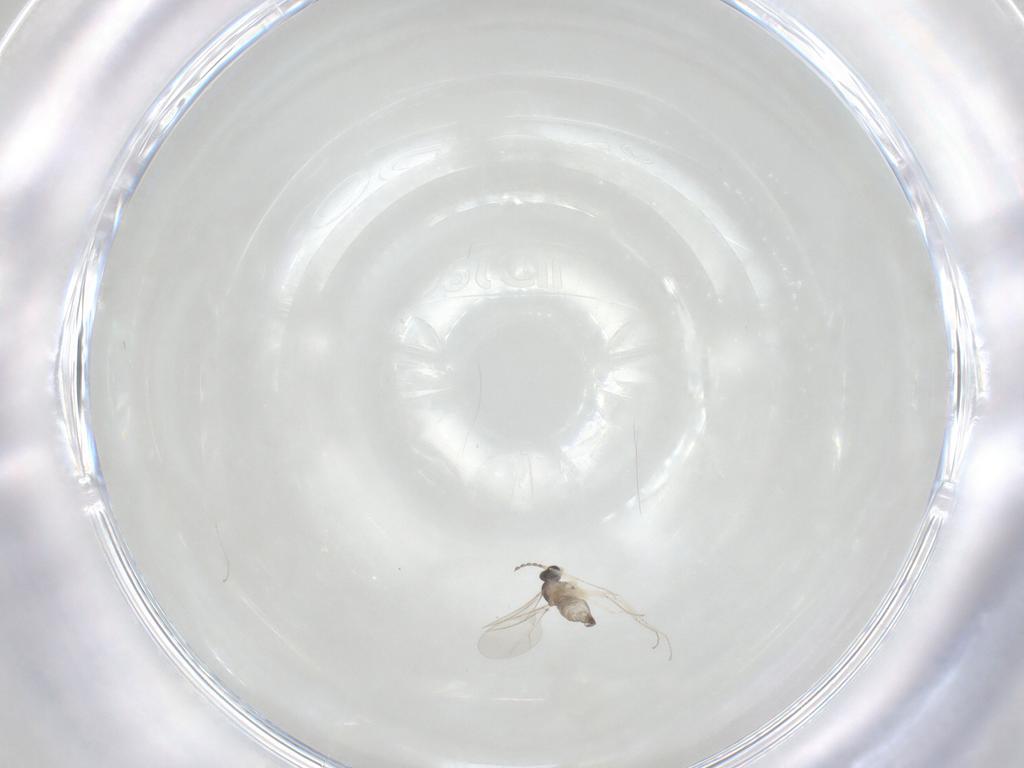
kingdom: Animalia
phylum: Arthropoda
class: Insecta
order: Diptera
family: Cecidomyiidae
